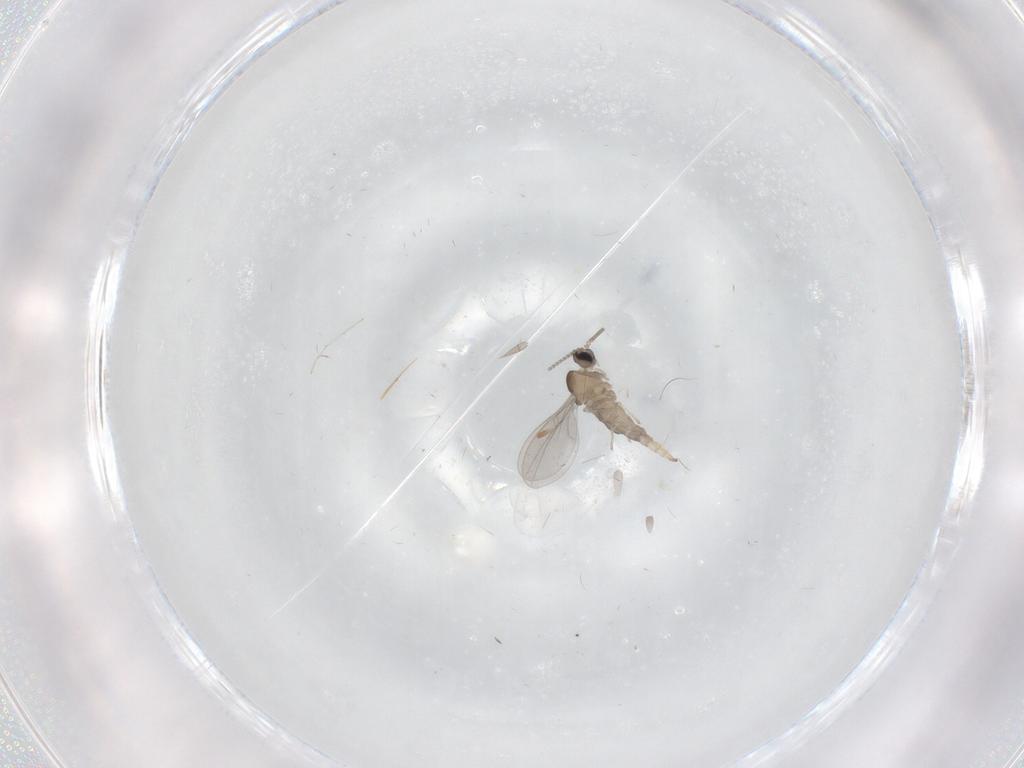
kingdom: Animalia
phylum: Arthropoda
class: Insecta
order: Diptera
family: Cecidomyiidae
